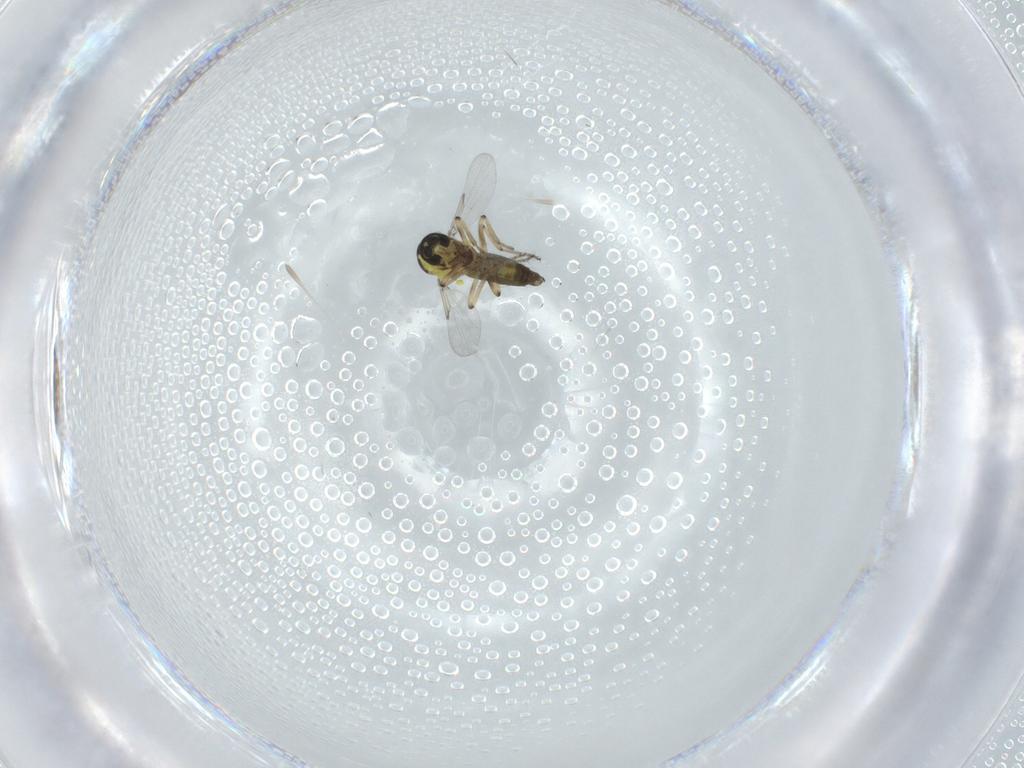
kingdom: Animalia
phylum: Arthropoda
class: Insecta
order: Diptera
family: Ceratopogonidae
